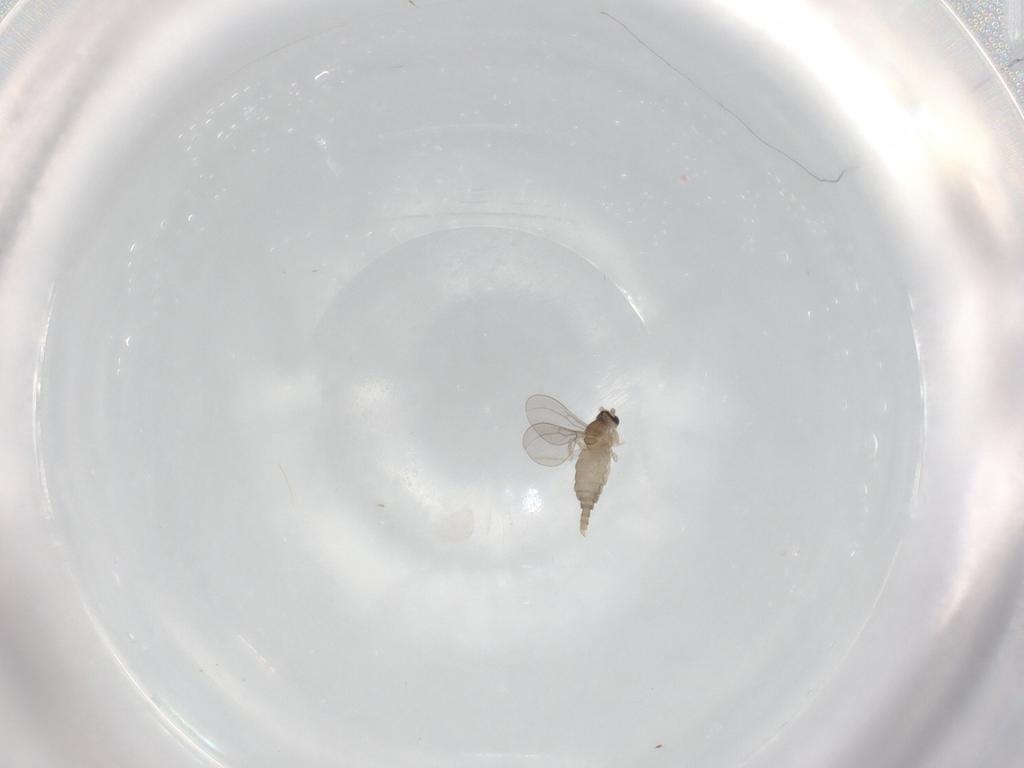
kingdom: Animalia
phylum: Arthropoda
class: Insecta
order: Diptera
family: Cecidomyiidae
